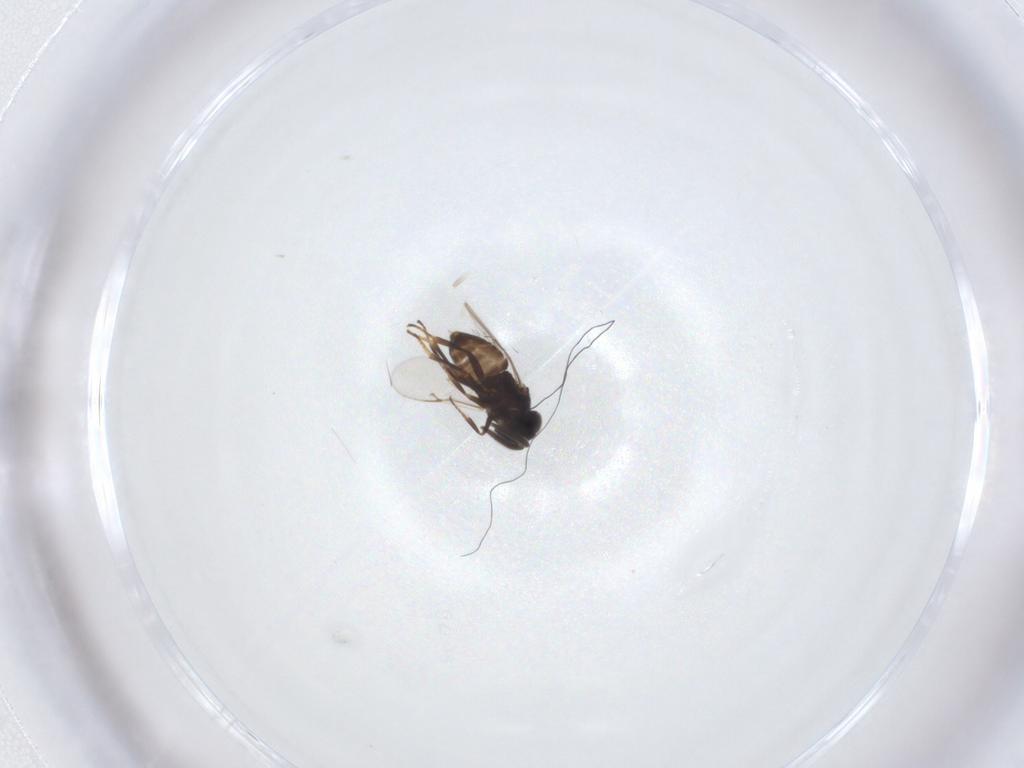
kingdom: Animalia
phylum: Arthropoda
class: Insecta
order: Hymenoptera
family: Encyrtidae
